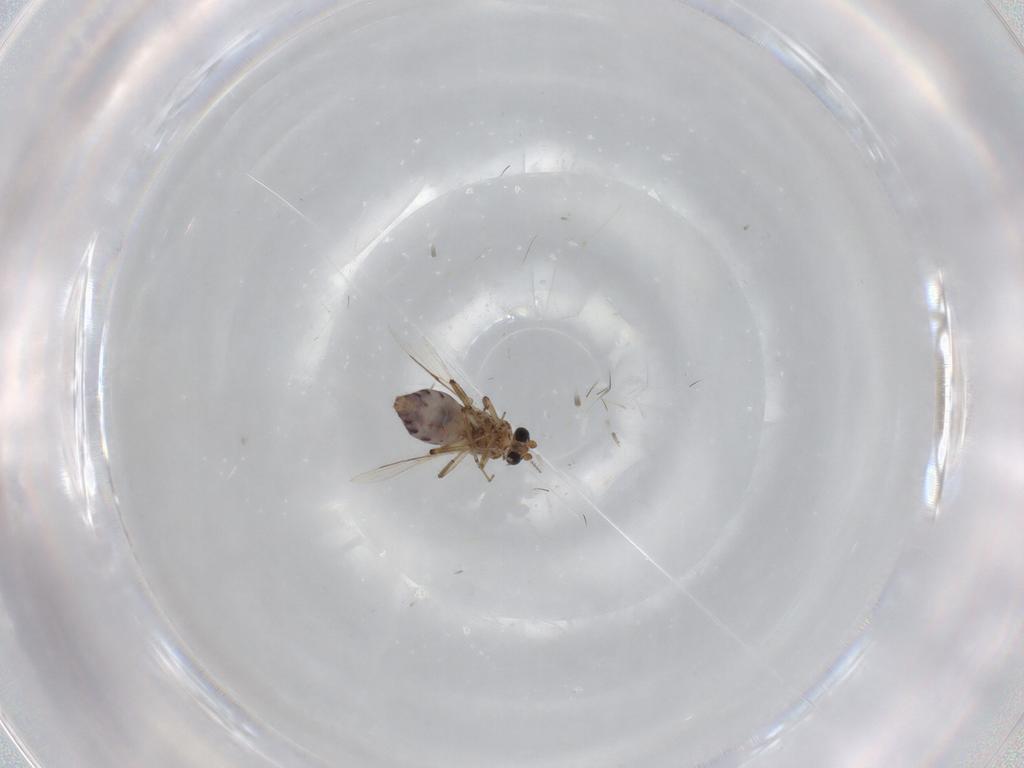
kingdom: Animalia
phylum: Arthropoda
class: Insecta
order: Diptera
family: Ceratopogonidae
